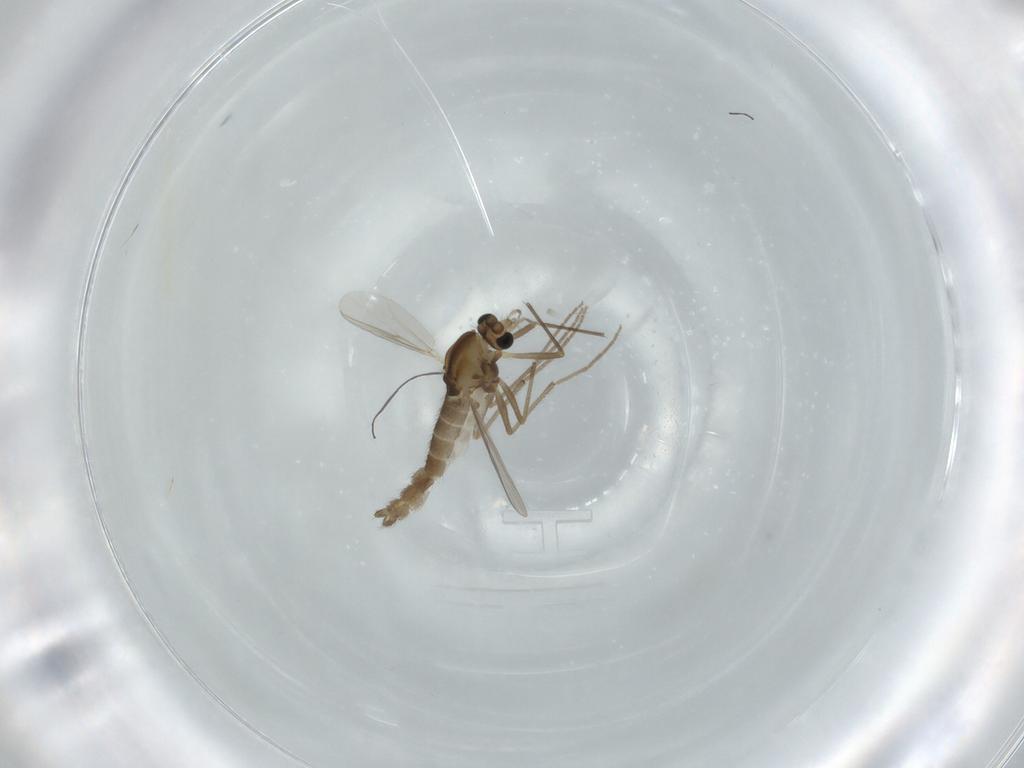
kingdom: Animalia
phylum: Arthropoda
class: Insecta
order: Diptera
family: Chironomidae
